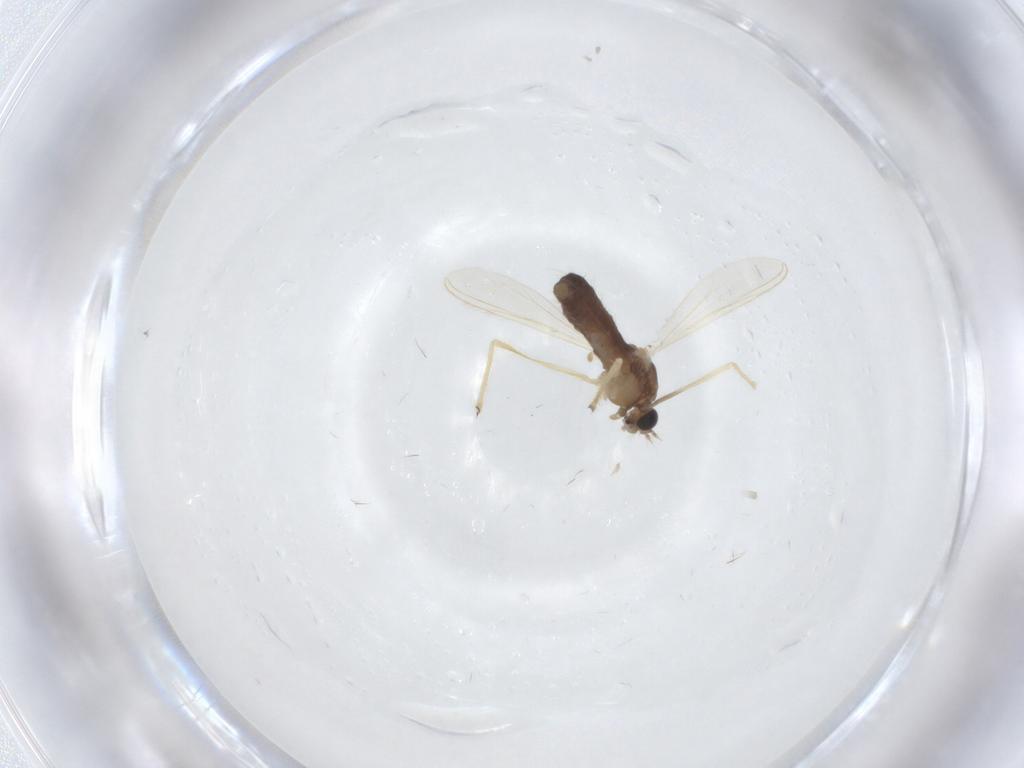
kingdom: Animalia
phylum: Arthropoda
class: Insecta
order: Diptera
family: Chironomidae
